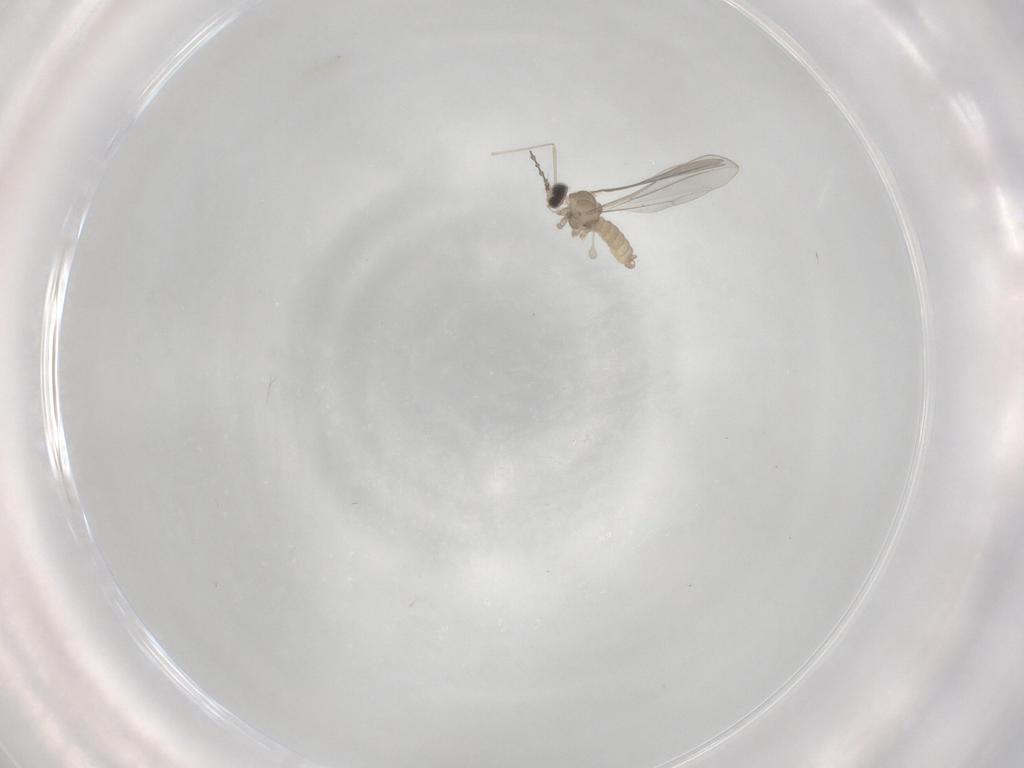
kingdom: Animalia
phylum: Arthropoda
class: Insecta
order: Diptera
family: Cecidomyiidae
